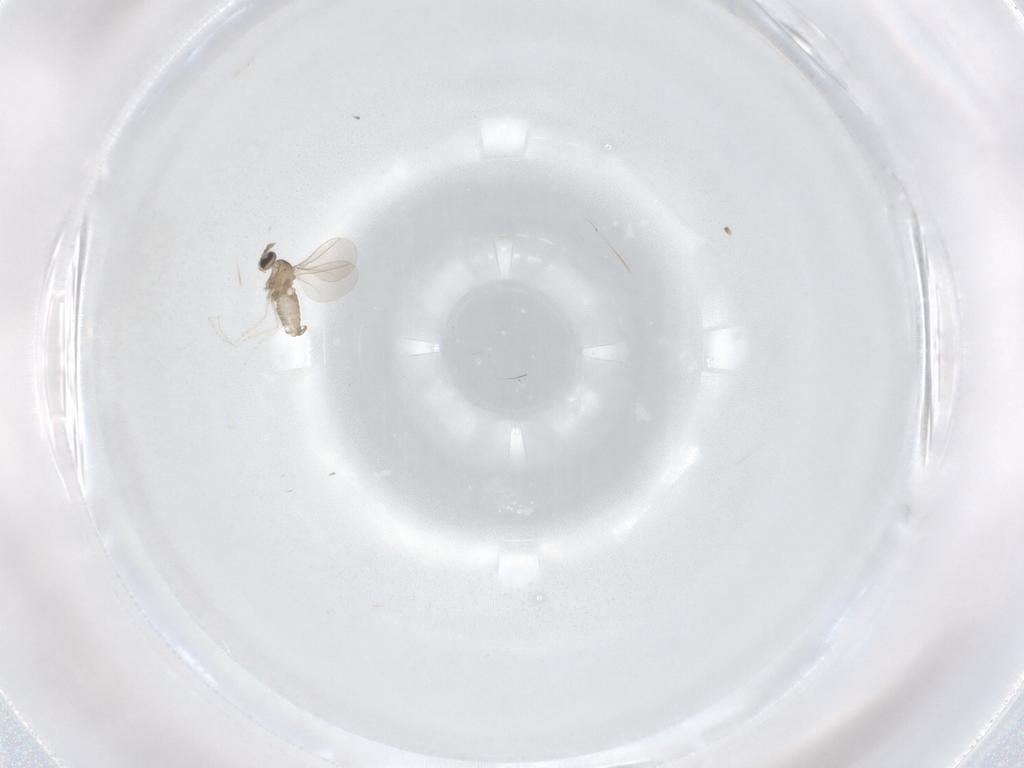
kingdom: Animalia
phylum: Arthropoda
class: Insecta
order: Diptera
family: Cecidomyiidae
